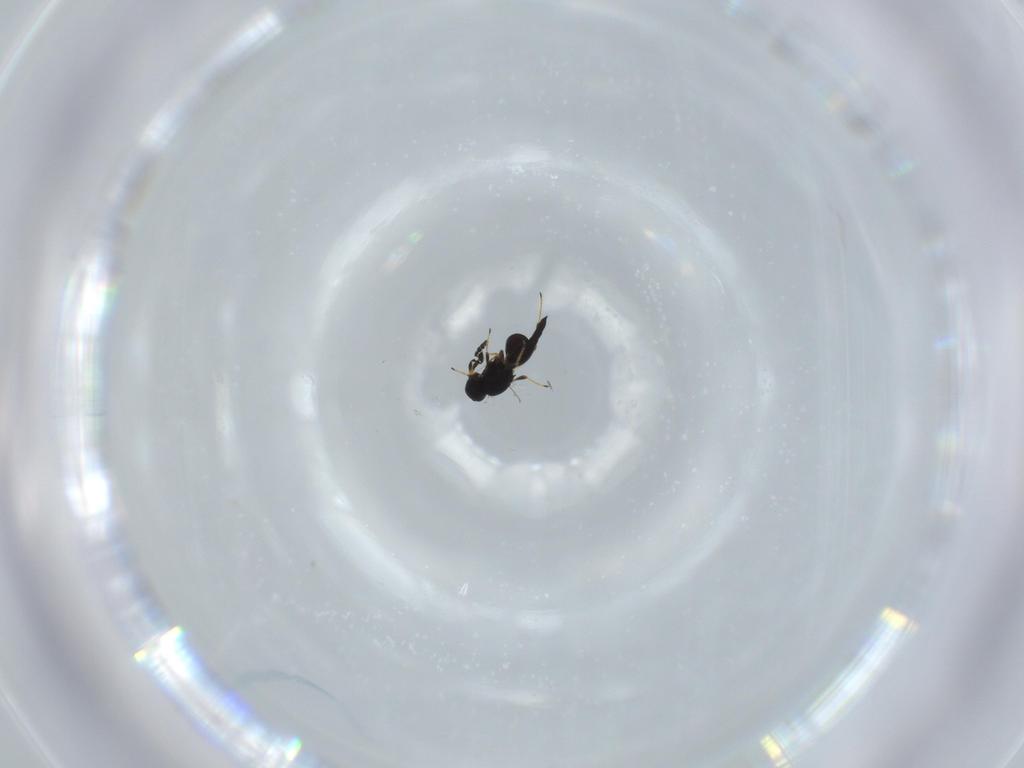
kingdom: Animalia
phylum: Arthropoda
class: Insecta
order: Hymenoptera
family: Platygastridae
